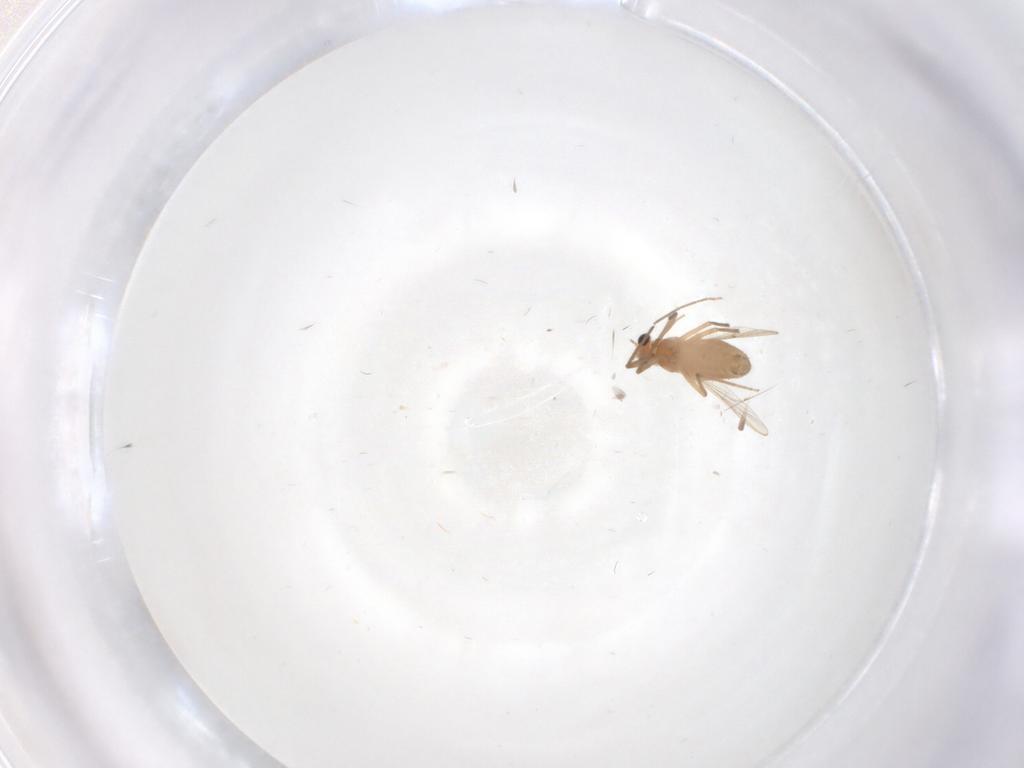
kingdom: Animalia
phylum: Arthropoda
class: Insecta
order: Diptera
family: Chironomidae
